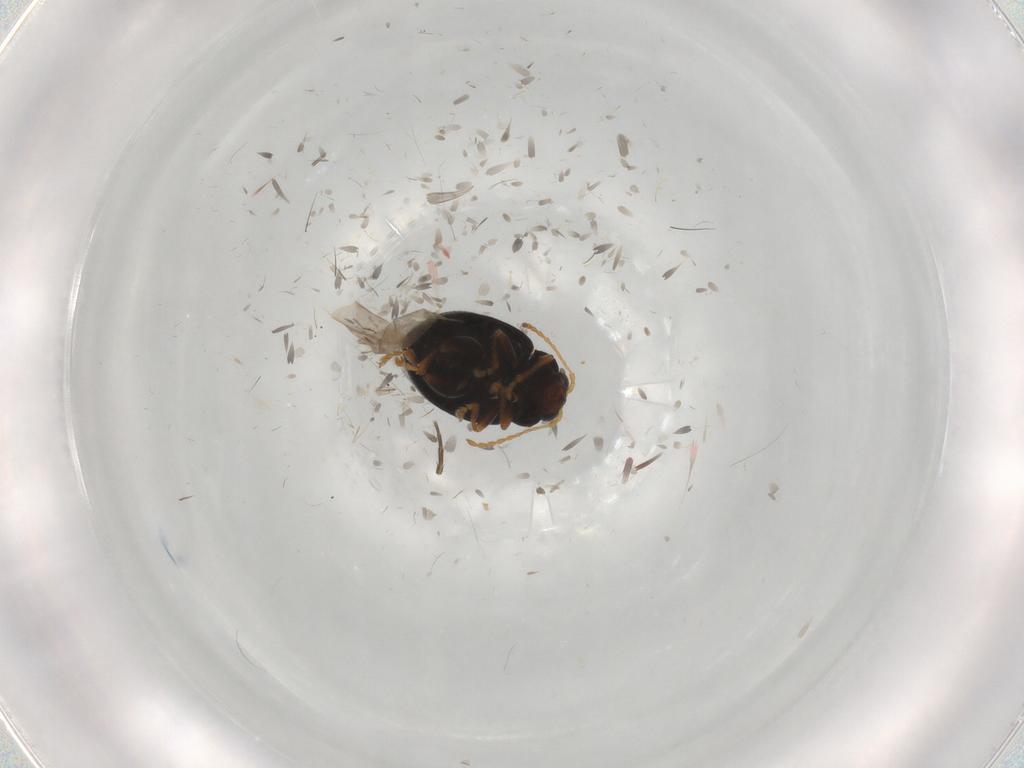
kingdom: Animalia
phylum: Arthropoda
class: Insecta
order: Coleoptera
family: Chrysomelidae
